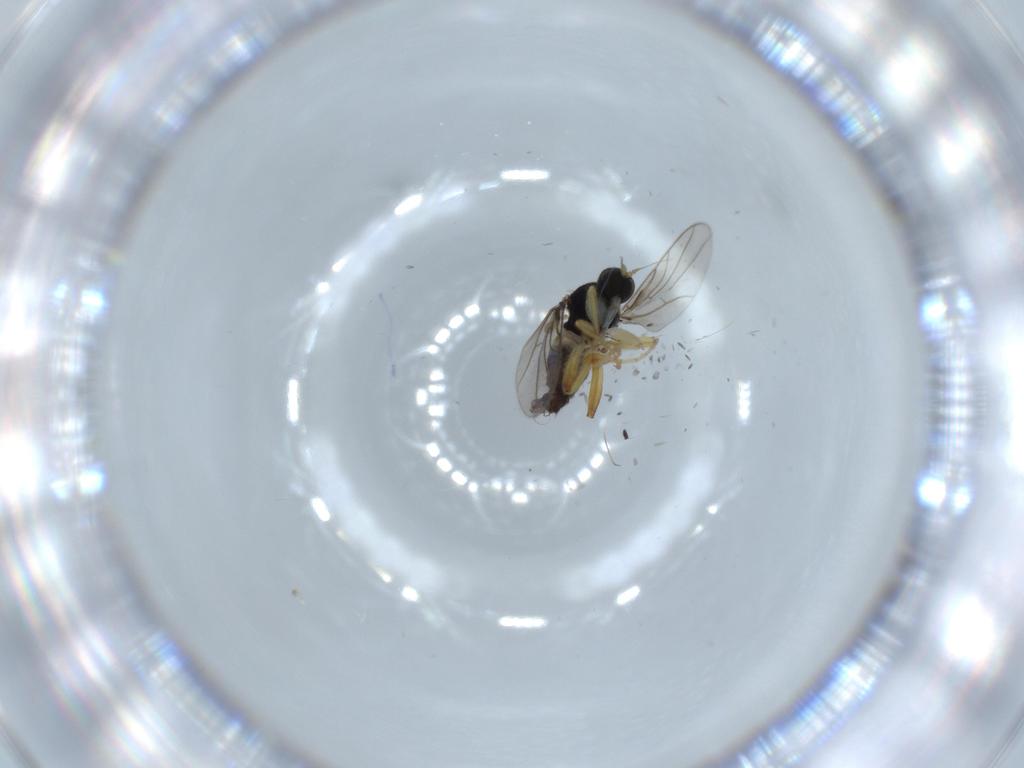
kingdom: Animalia
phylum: Arthropoda
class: Insecta
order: Diptera
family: Hybotidae
